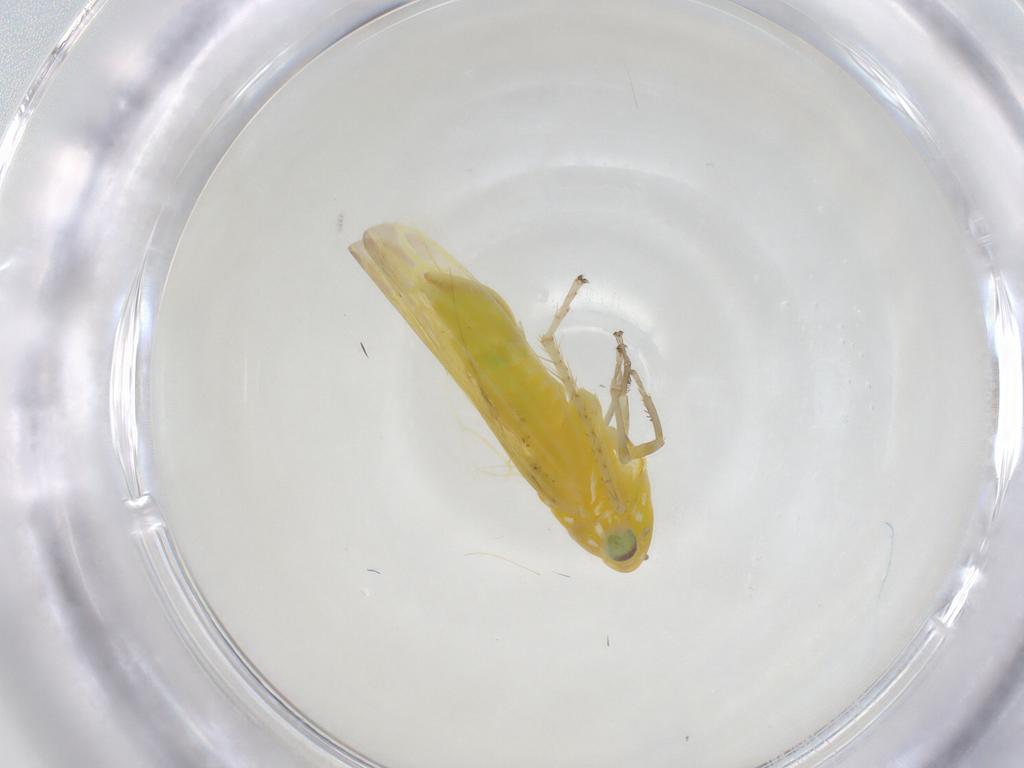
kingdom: Animalia
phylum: Arthropoda
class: Insecta
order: Hemiptera
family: Cicadellidae
